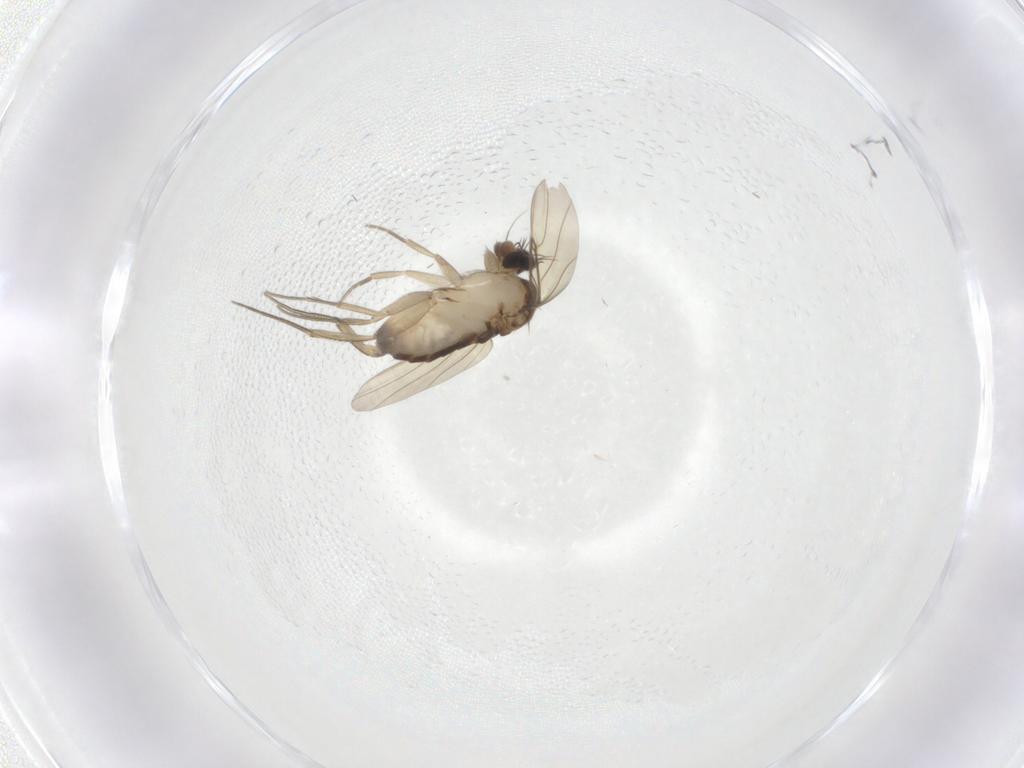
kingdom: Animalia
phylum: Arthropoda
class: Insecta
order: Diptera
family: Phoridae
